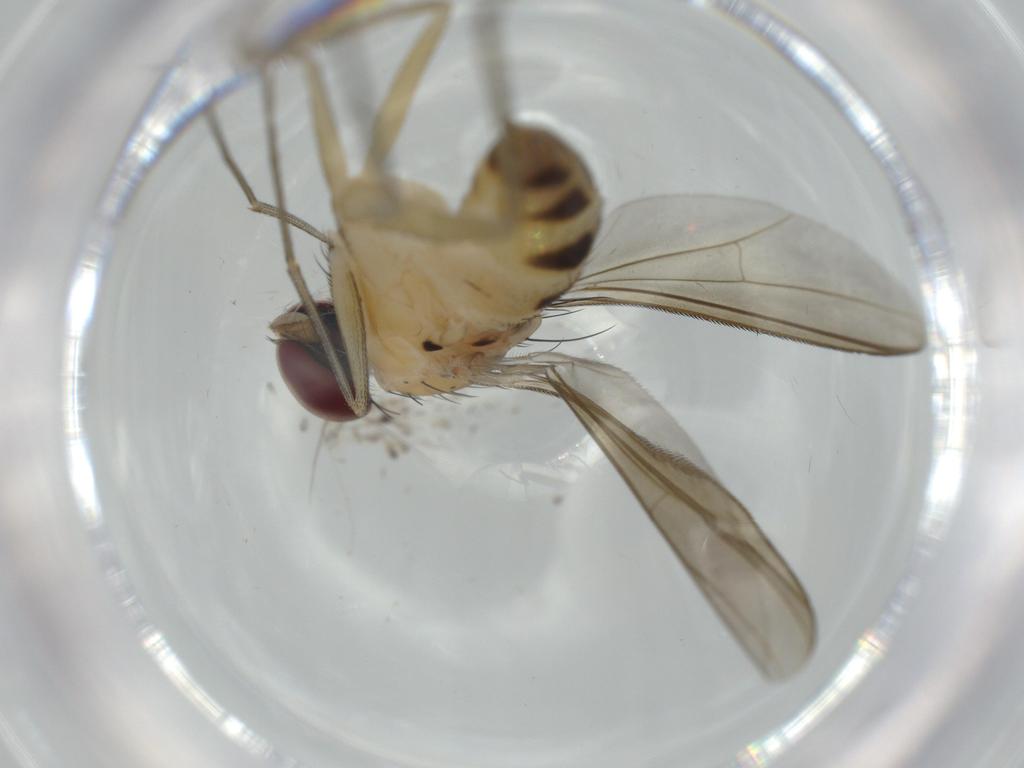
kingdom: Animalia
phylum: Arthropoda
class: Insecta
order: Diptera
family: Dolichopodidae
